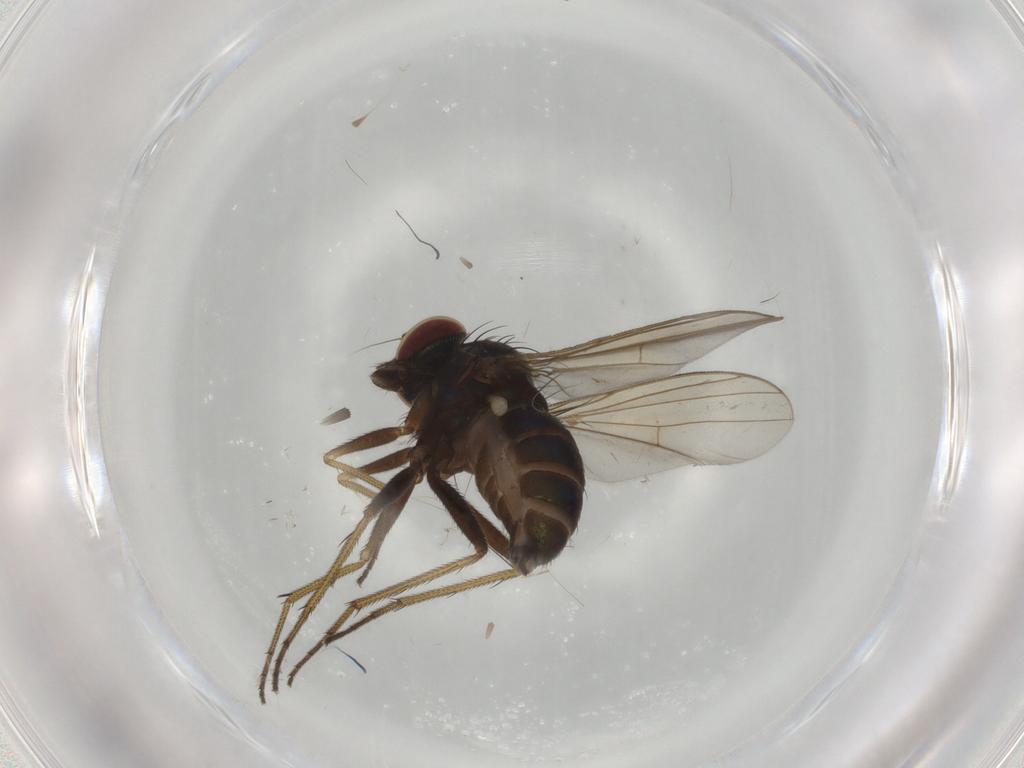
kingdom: Animalia
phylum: Arthropoda
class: Insecta
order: Diptera
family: Dolichopodidae
